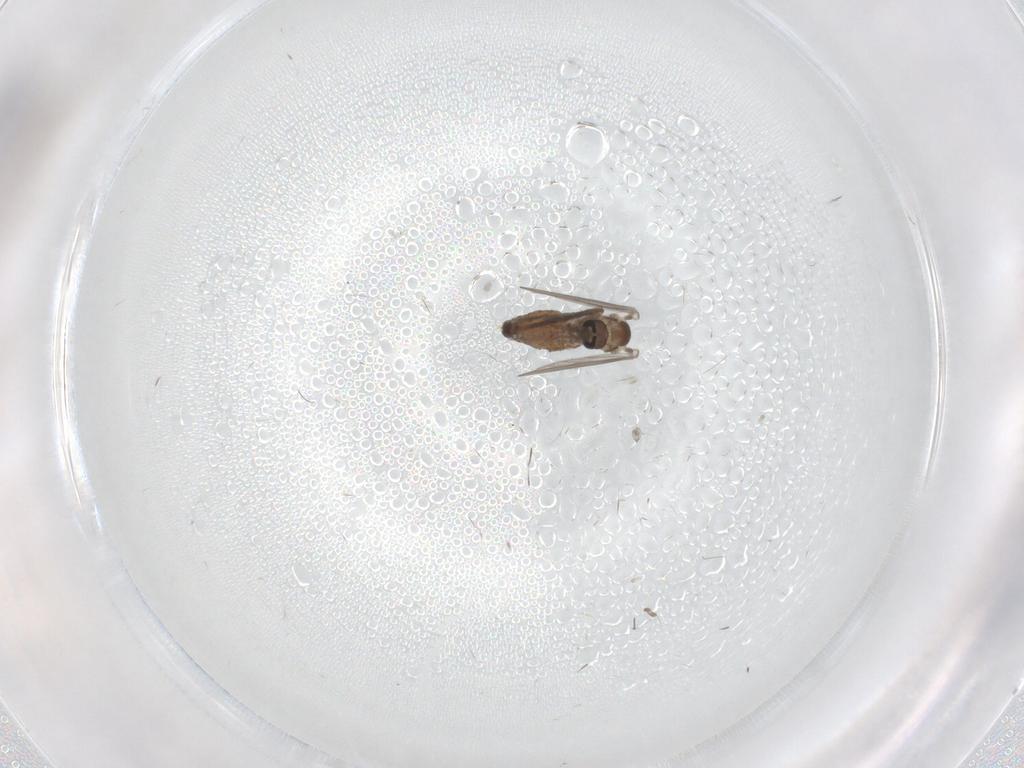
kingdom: Animalia
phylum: Arthropoda
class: Insecta
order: Diptera
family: Psychodidae
